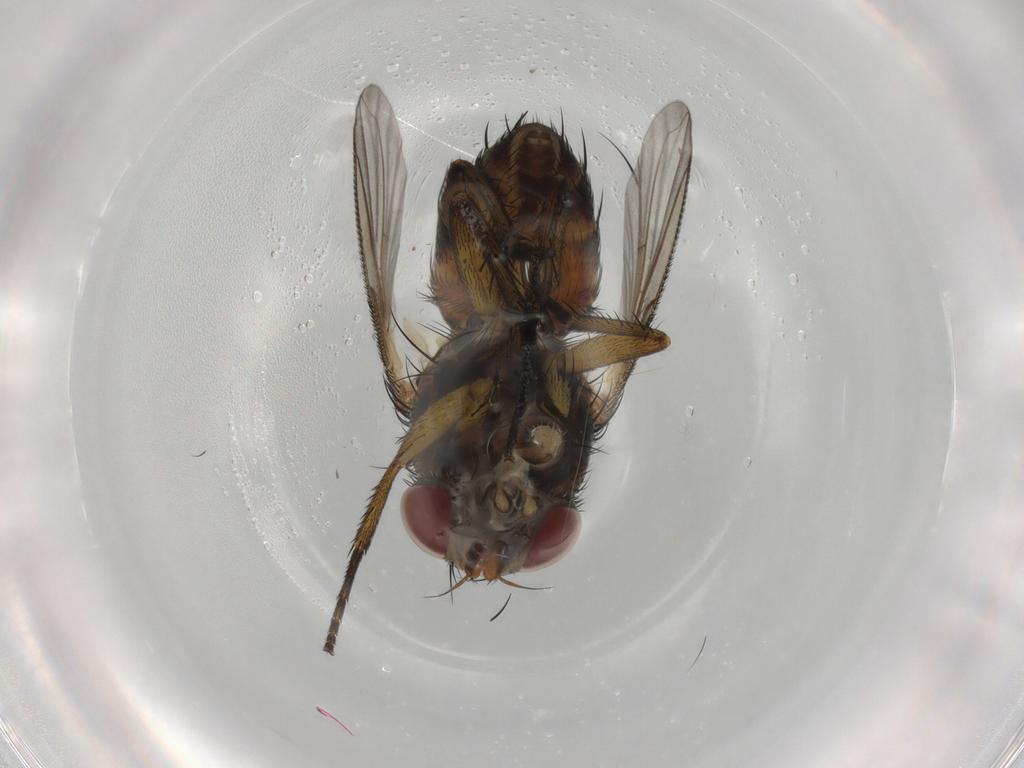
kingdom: Animalia
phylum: Arthropoda
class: Insecta
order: Diptera
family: Tachinidae
